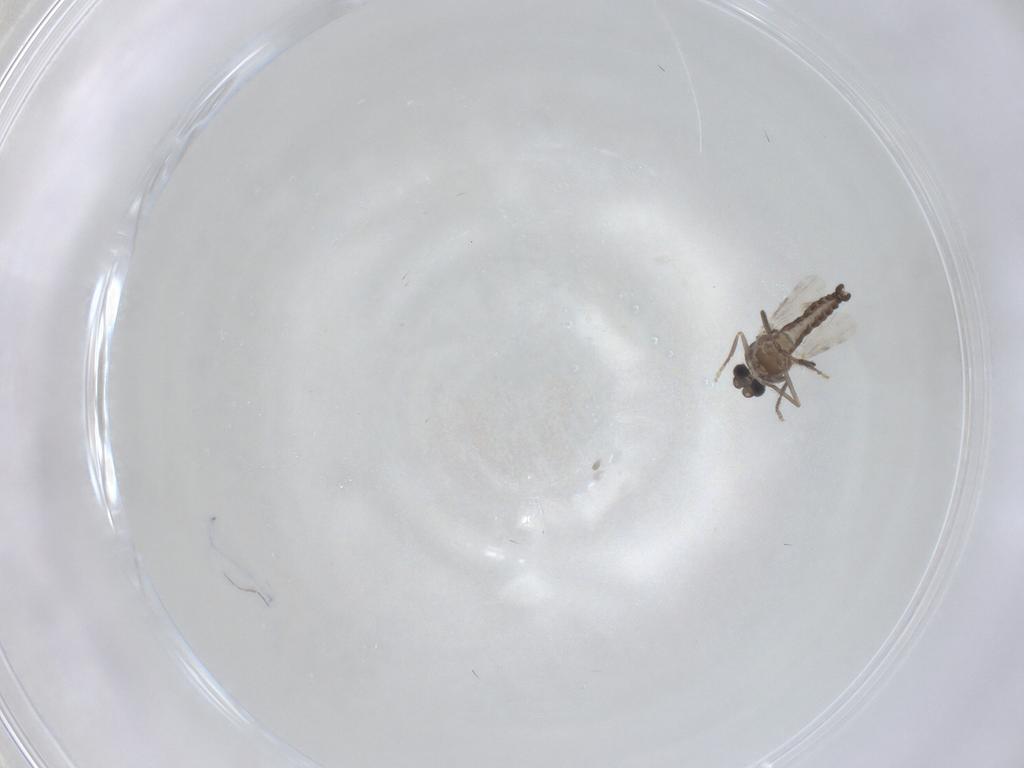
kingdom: Animalia
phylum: Arthropoda
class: Insecta
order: Diptera
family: Ceratopogonidae
